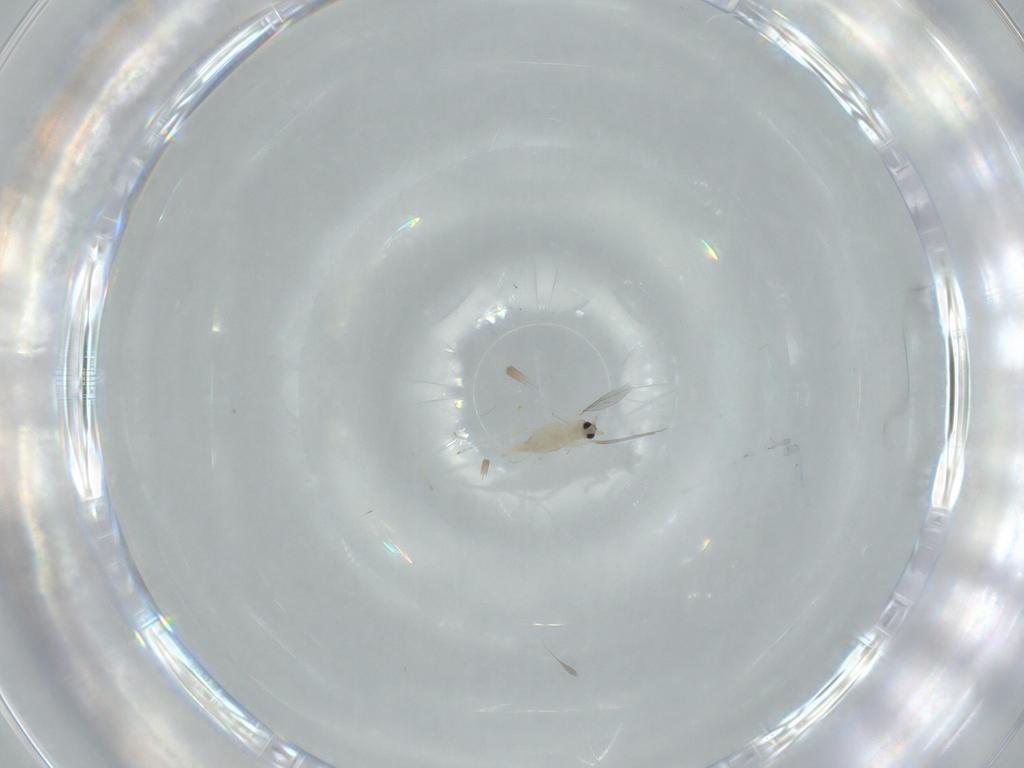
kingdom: Animalia
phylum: Arthropoda
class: Insecta
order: Diptera
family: Cecidomyiidae
